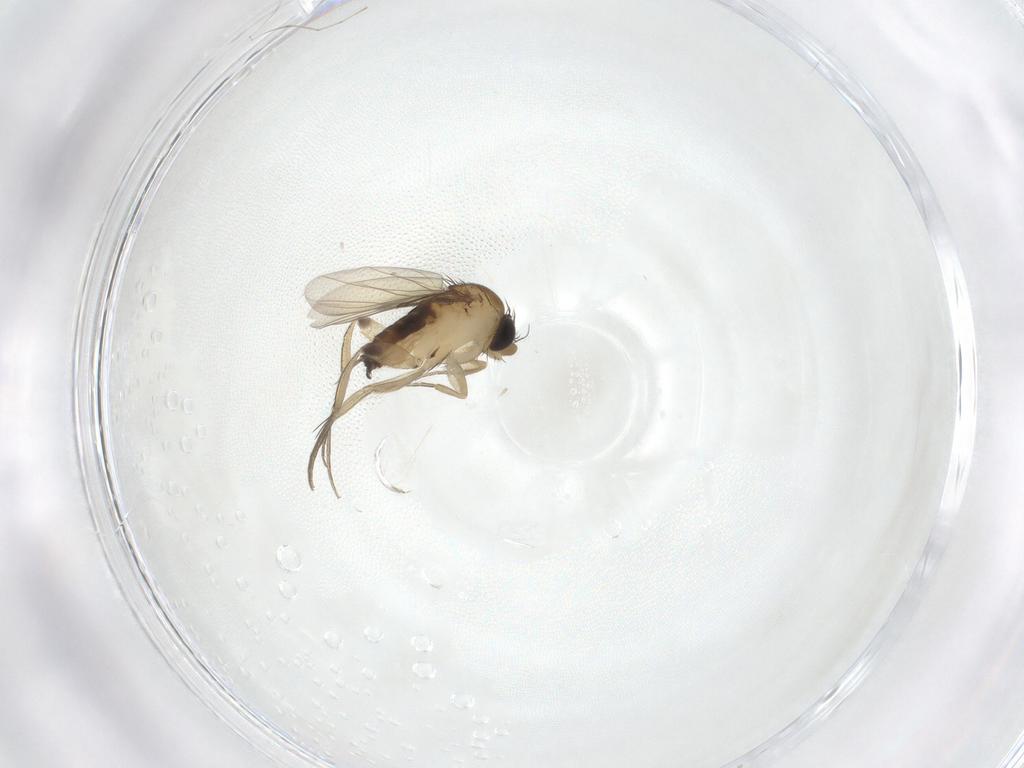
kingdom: Animalia
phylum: Arthropoda
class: Insecta
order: Diptera
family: Phoridae
